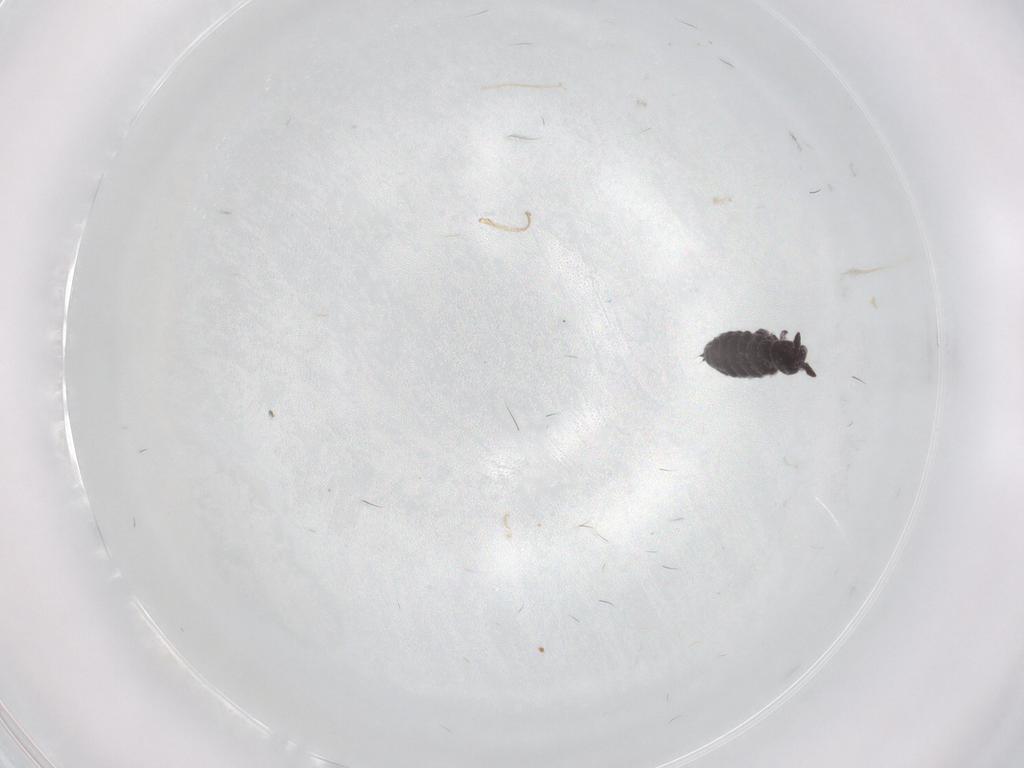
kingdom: Animalia
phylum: Arthropoda
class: Collembola
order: Poduromorpha
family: Hypogastruridae
